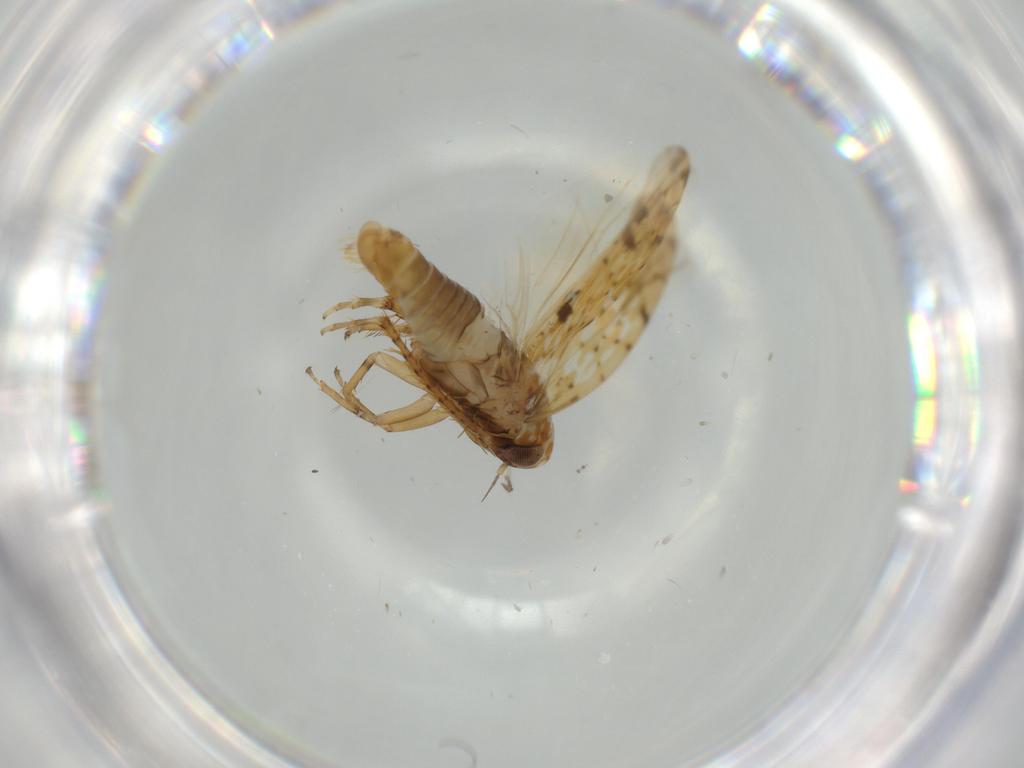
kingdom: Animalia
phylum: Arthropoda
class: Insecta
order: Hemiptera
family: Cicadellidae
